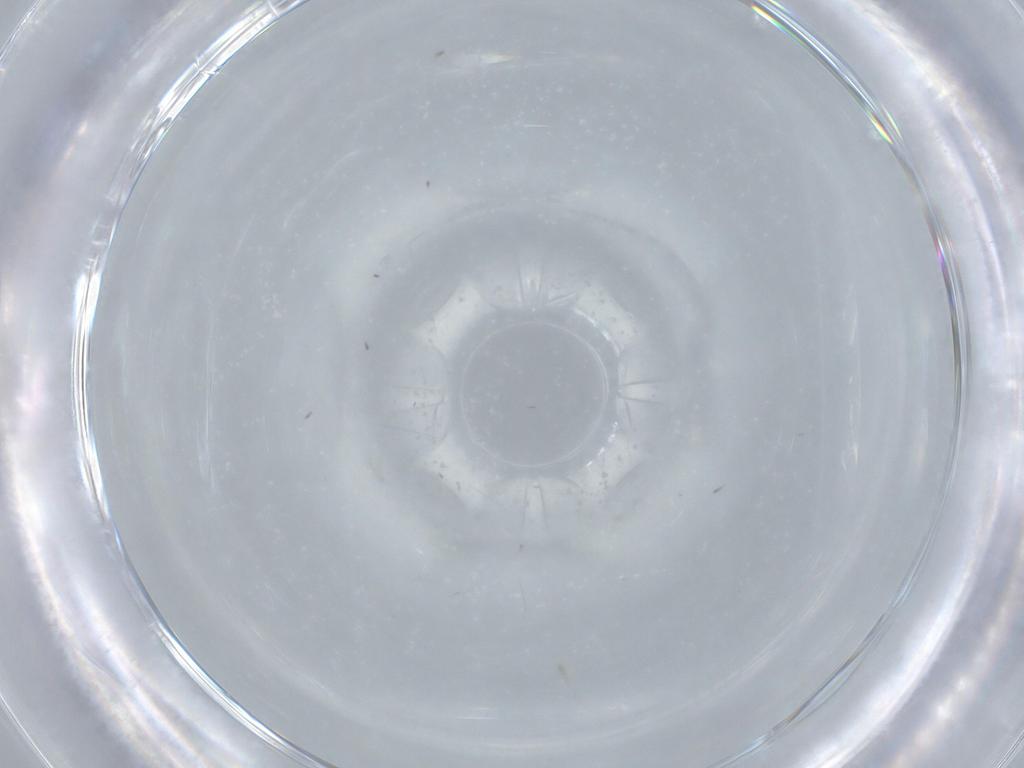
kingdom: Animalia
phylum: Arthropoda
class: Insecta
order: Diptera
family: Cecidomyiidae
